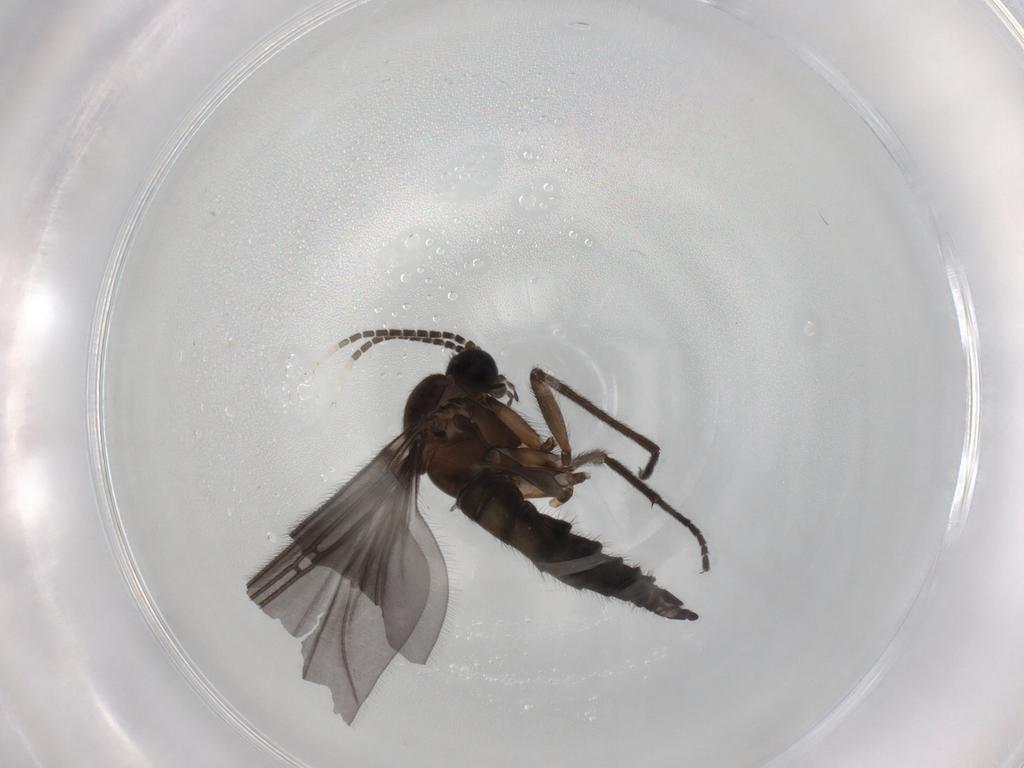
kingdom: Animalia
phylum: Arthropoda
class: Insecta
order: Diptera
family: Sciaridae
